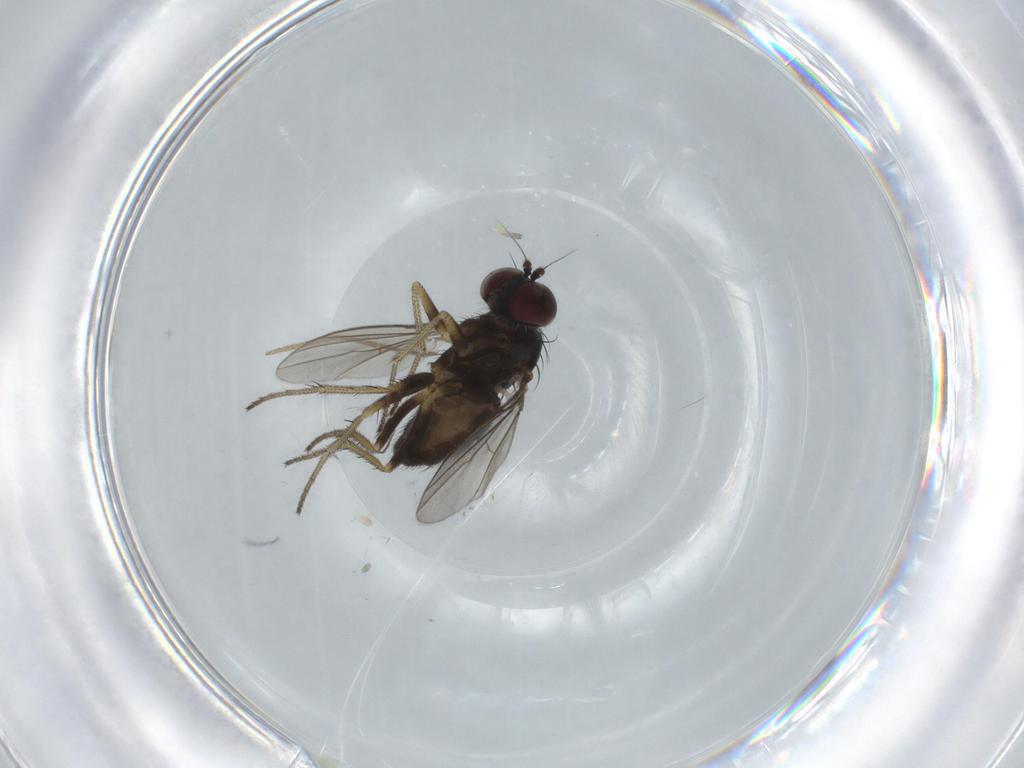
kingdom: Animalia
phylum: Arthropoda
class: Insecta
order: Diptera
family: Dolichopodidae
